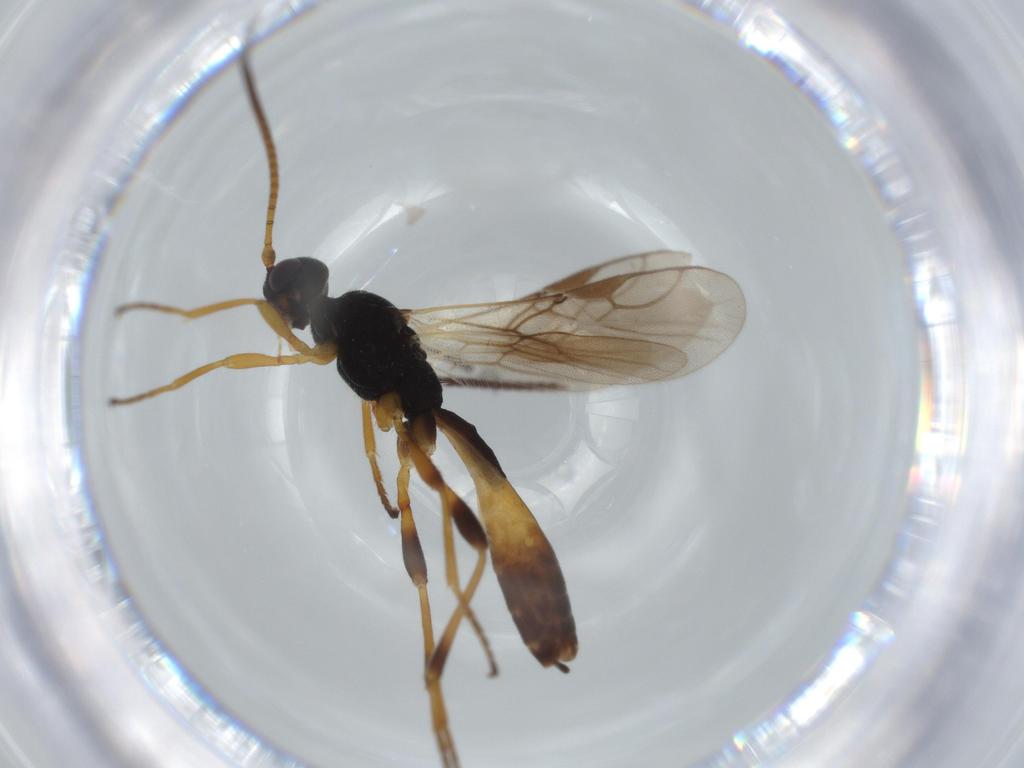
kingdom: Animalia
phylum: Arthropoda
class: Insecta
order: Hymenoptera
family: Braconidae
